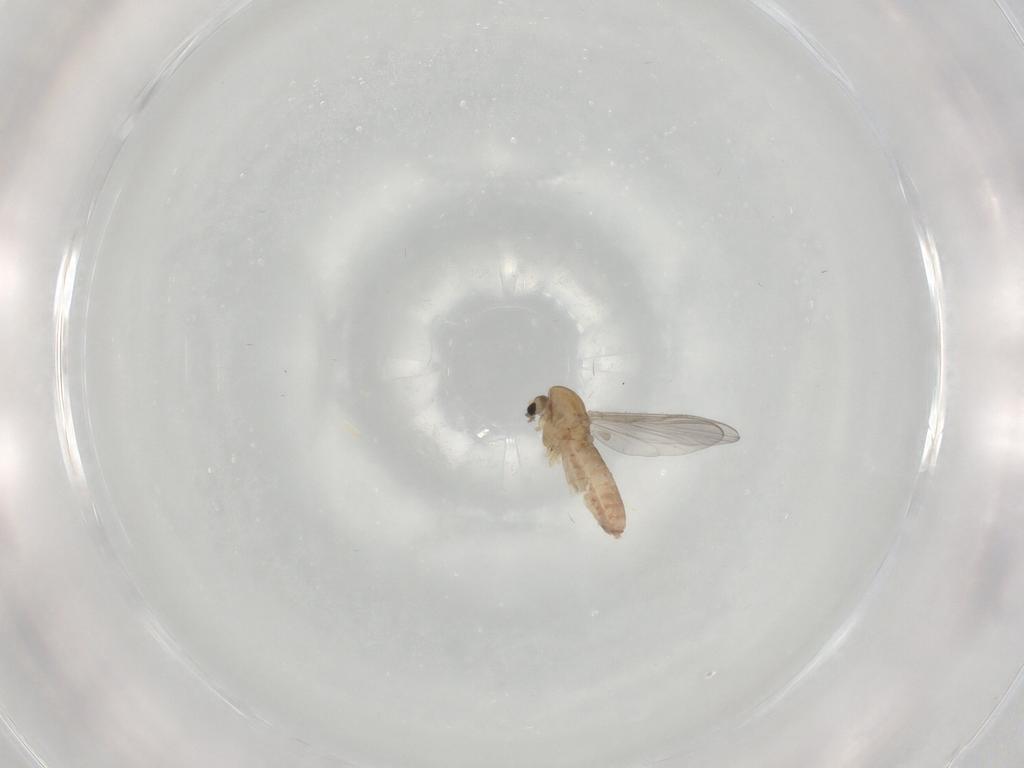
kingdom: Animalia
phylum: Arthropoda
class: Insecta
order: Diptera
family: Chironomidae
